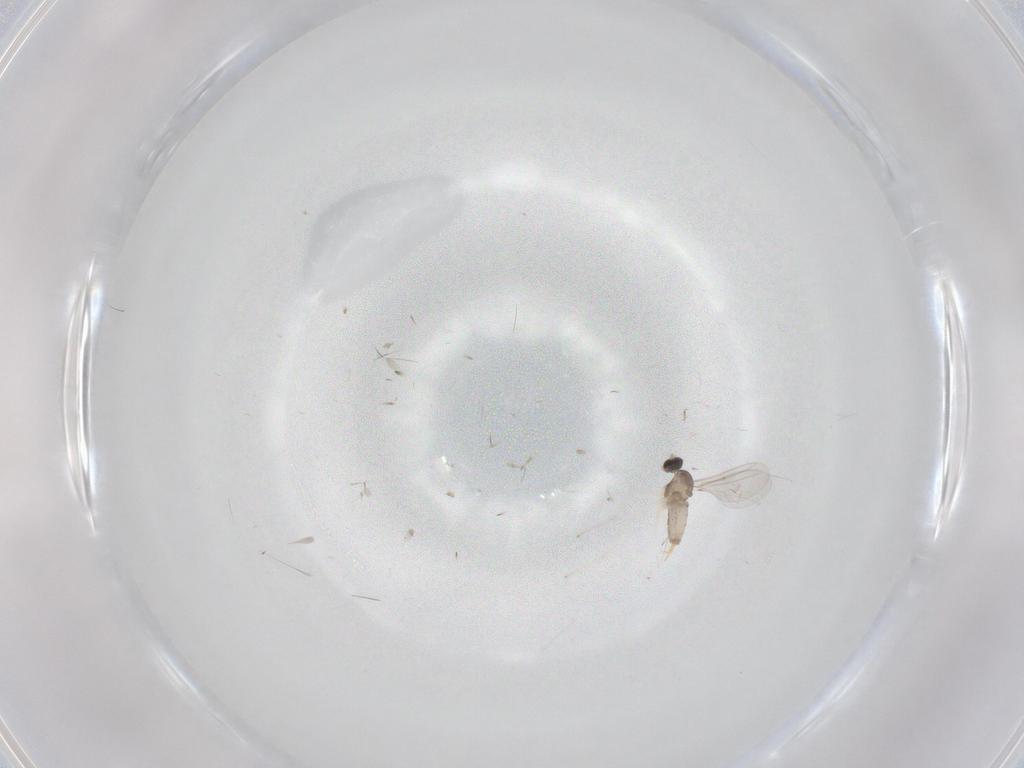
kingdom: Animalia
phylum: Arthropoda
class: Insecta
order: Diptera
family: Cecidomyiidae
